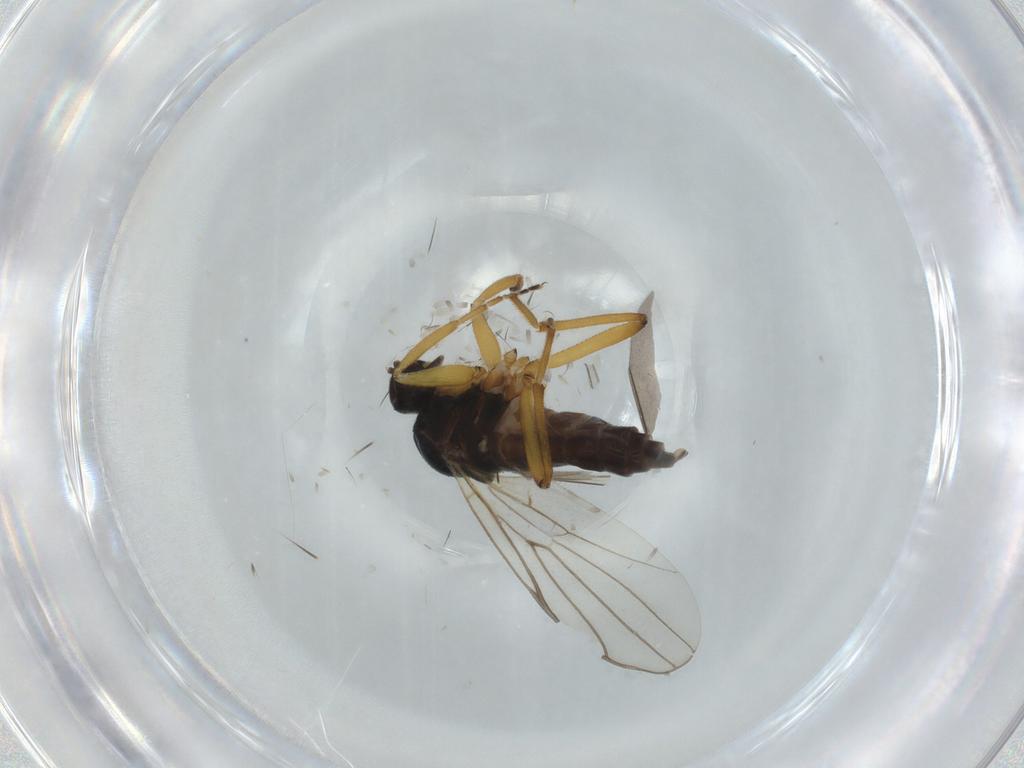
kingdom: Animalia
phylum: Arthropoda
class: Insecta
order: Diptera
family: Hybotidae
